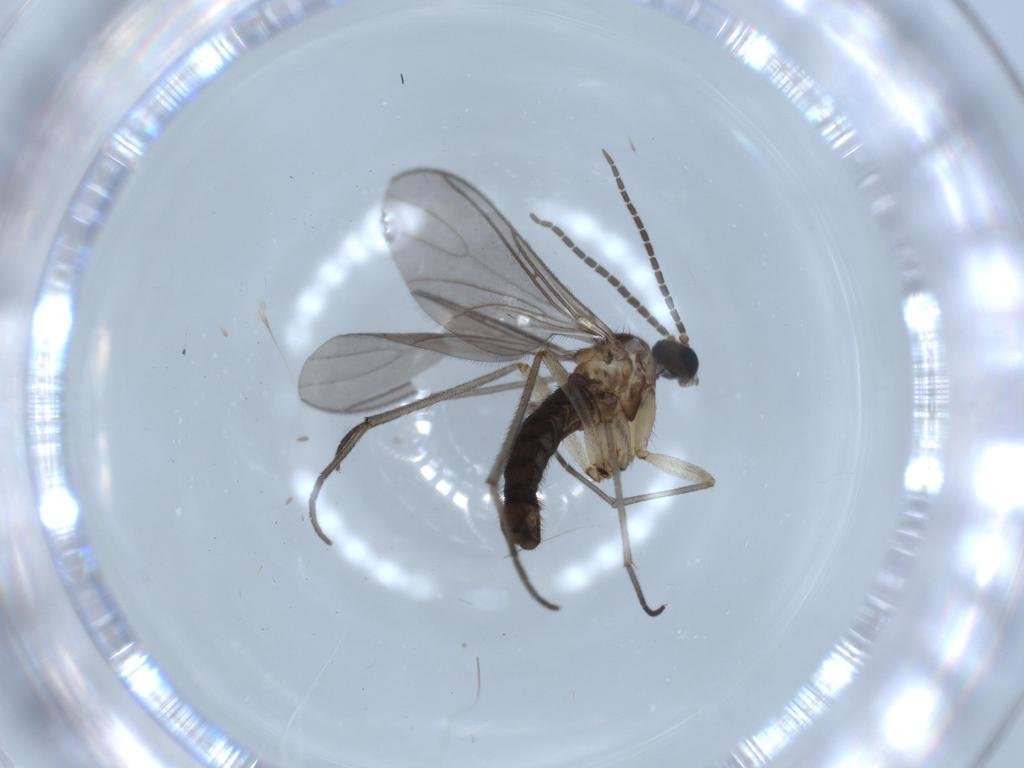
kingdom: Animalia
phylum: Arthropoda
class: Insecta
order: Diptera
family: Sciaridae
